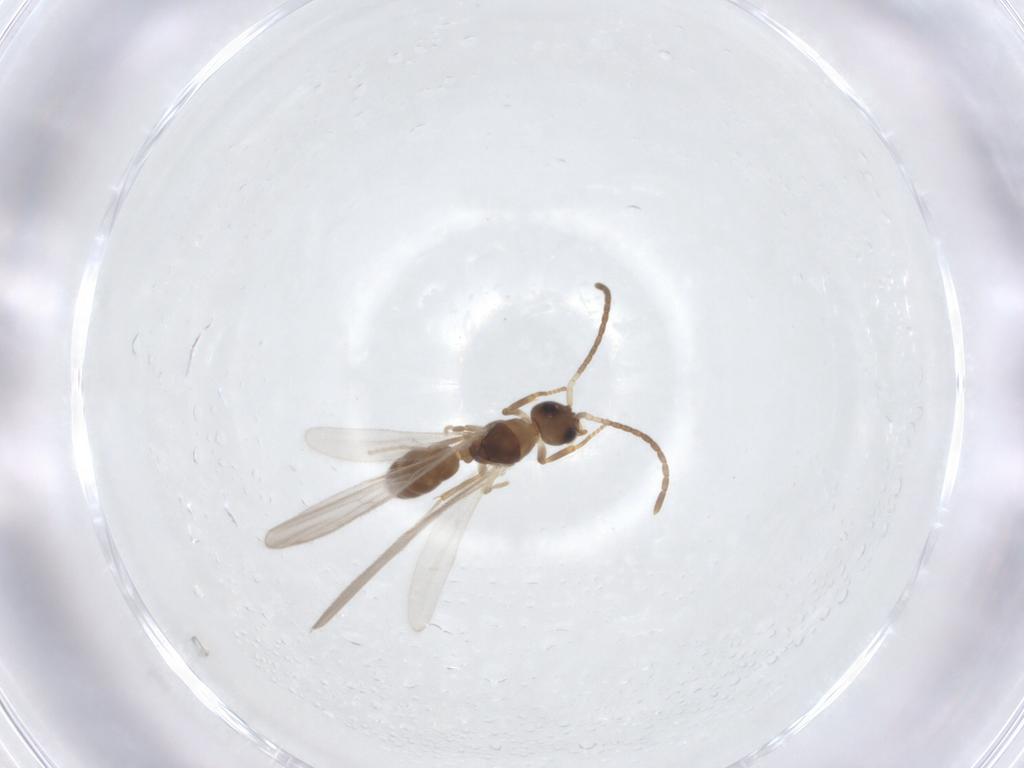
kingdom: Animalia
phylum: Arthropoda
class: Insecta
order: Hymenoptera
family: Formicidae
